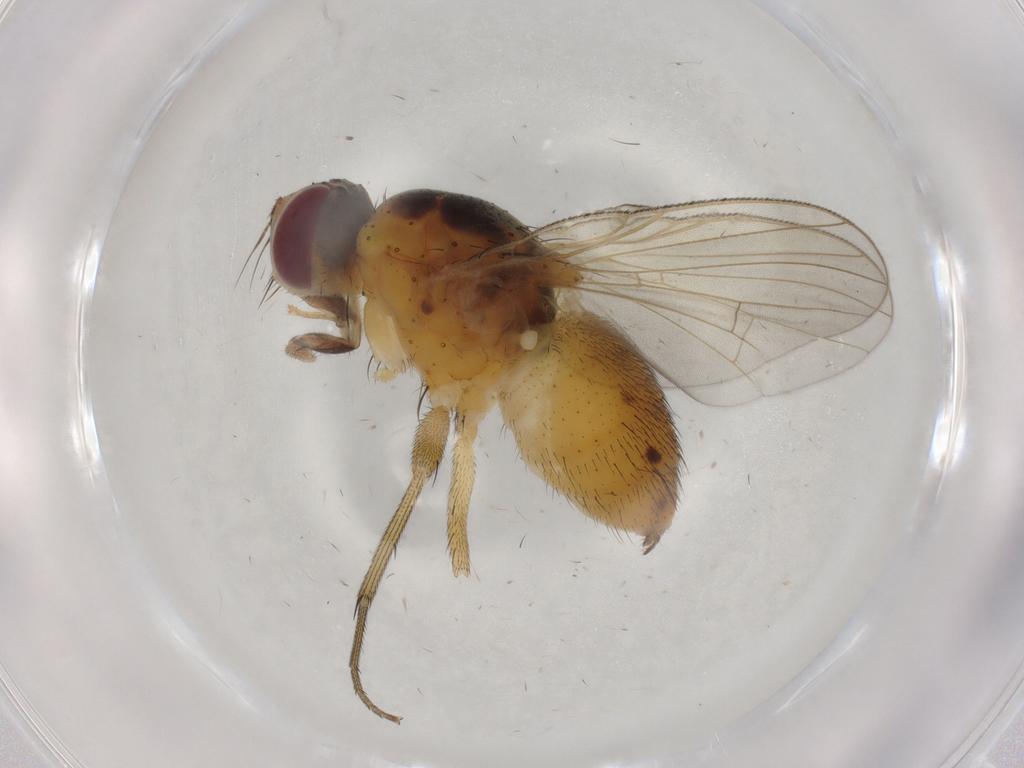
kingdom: Animalia
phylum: Arthropoda
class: Insecta
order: Diptera
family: Muscidae
